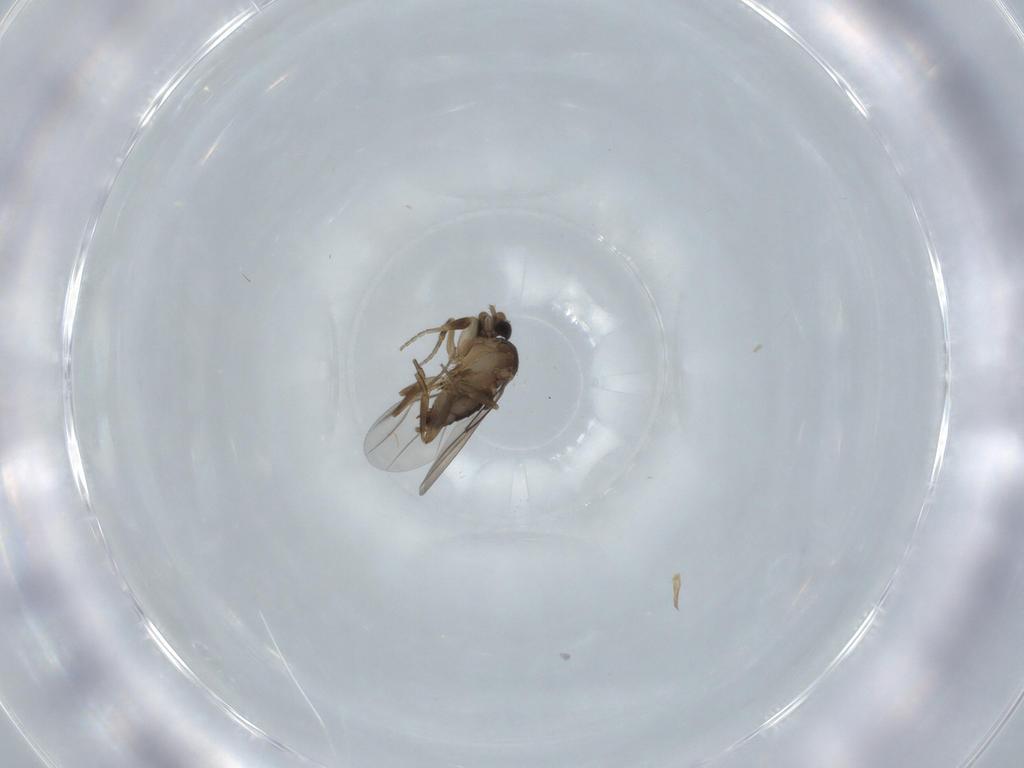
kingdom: Animalia
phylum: Arthropoda
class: Insecta
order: Diptera
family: Phoridae
